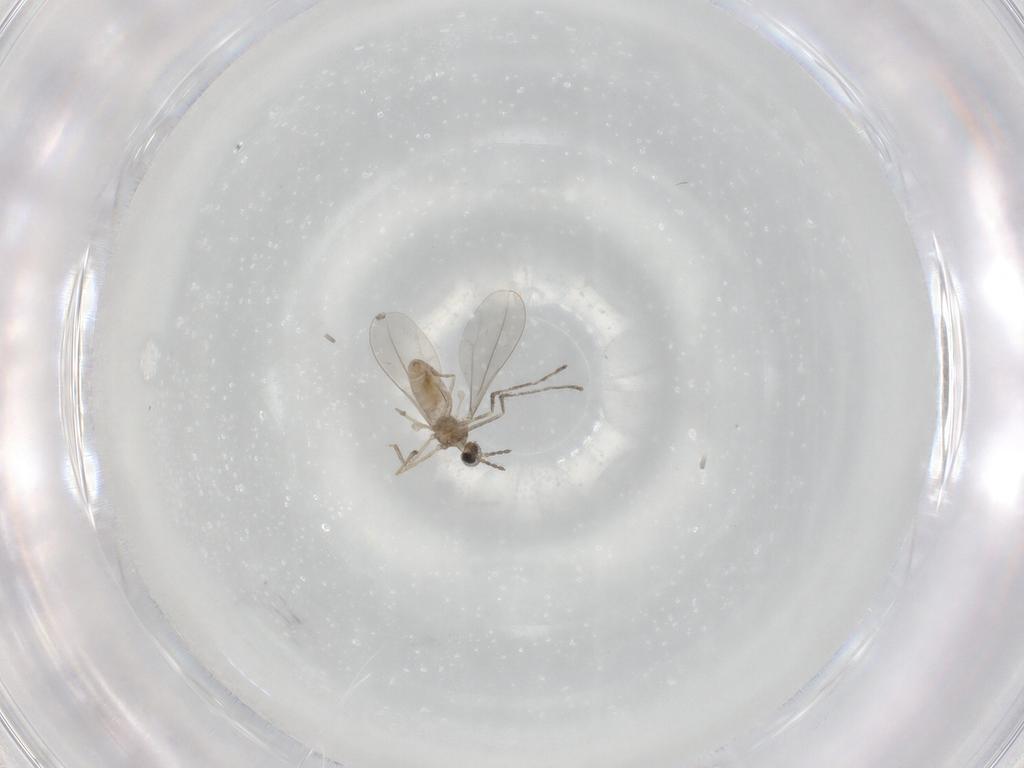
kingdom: Animalia
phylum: Arthropoda
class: Insecta
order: Diptera
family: Cecidomyiidae
